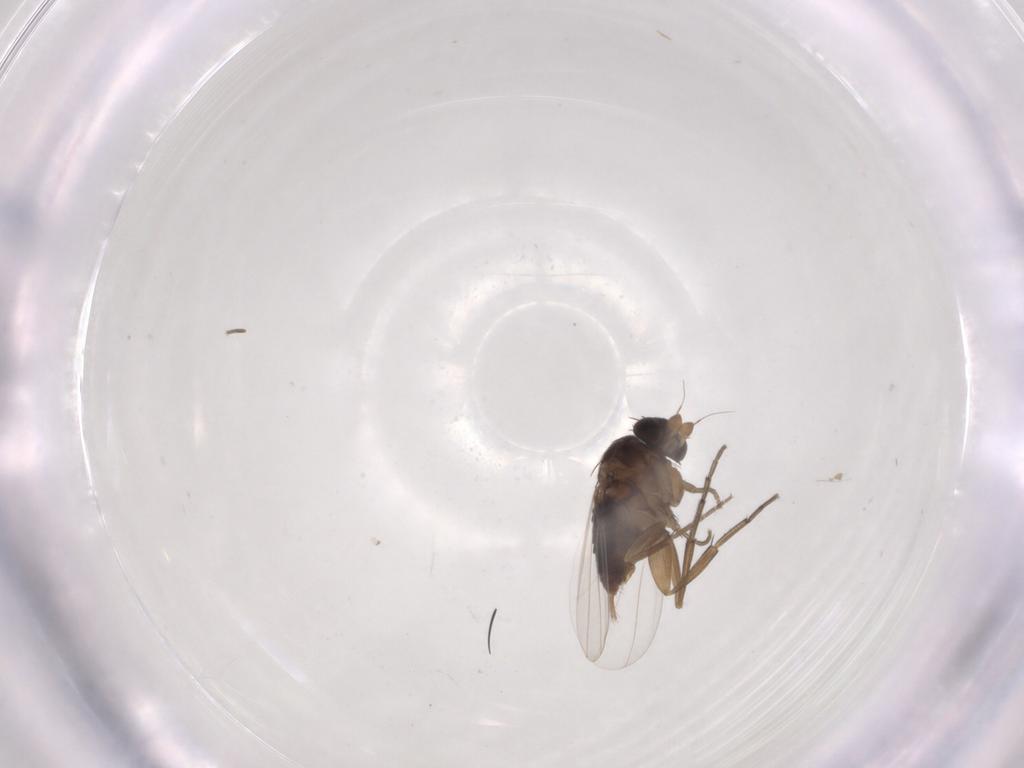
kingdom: Animalia
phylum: Arthropoda
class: Insecta
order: Diptera
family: Phoridae
